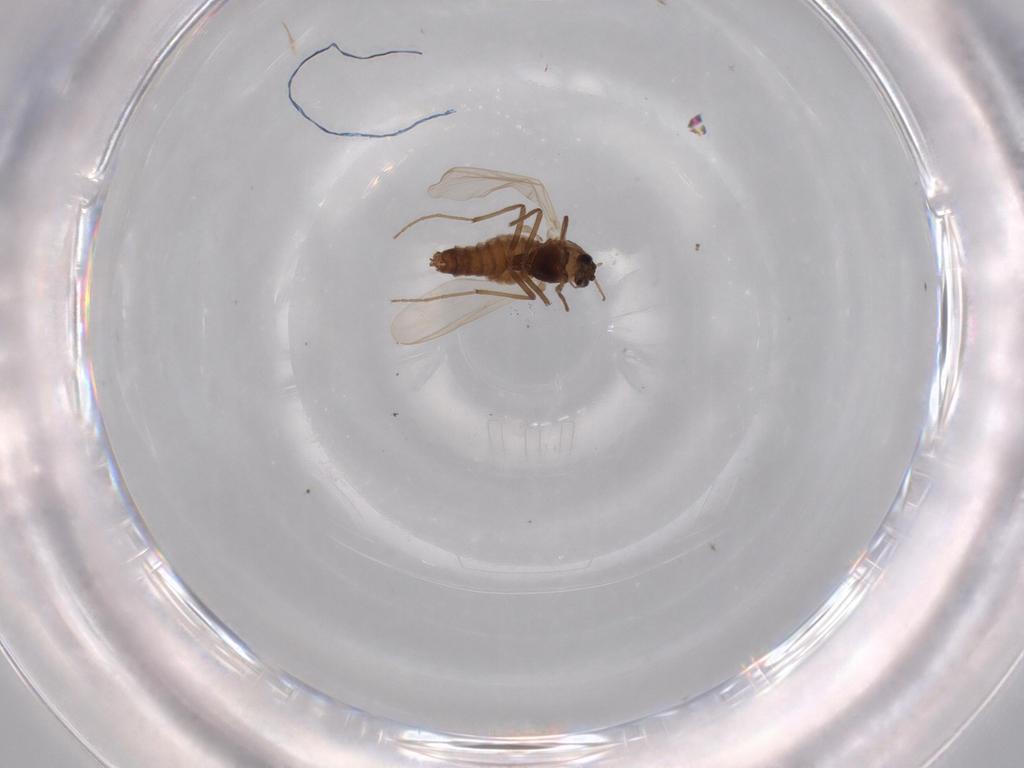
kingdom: Animalia
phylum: Arthropoda
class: Insecta
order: Diptera
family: Chironomidae
